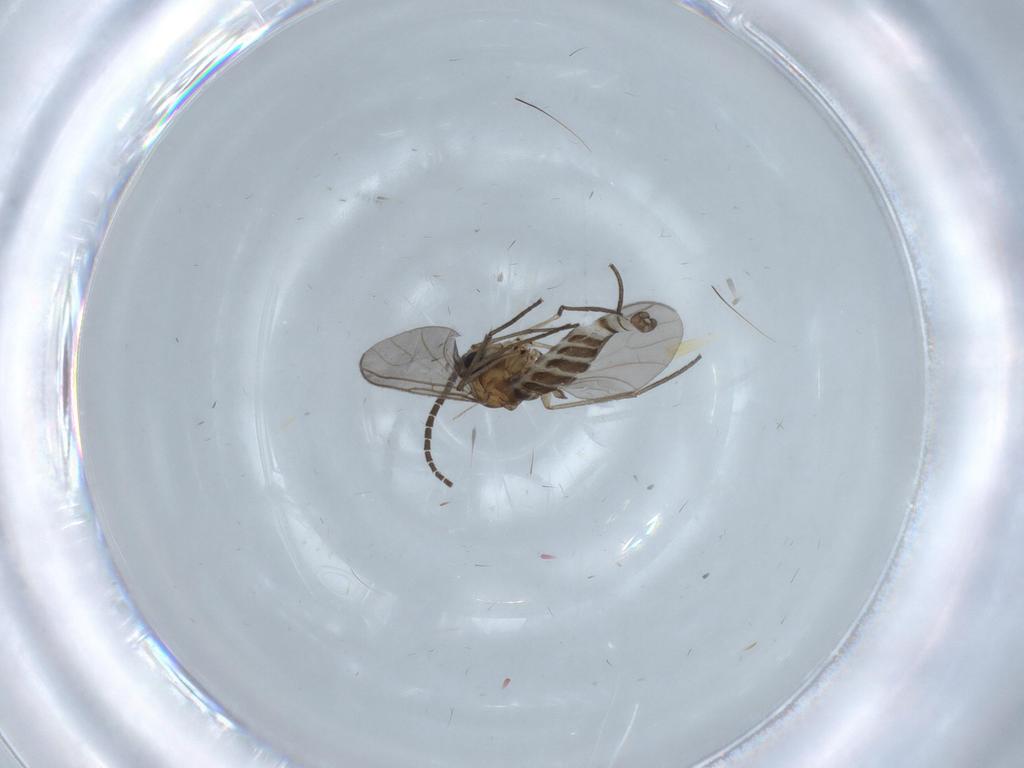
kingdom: Animalia
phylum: Arthropoda
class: Insecta
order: Diptera
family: Sciaridae
